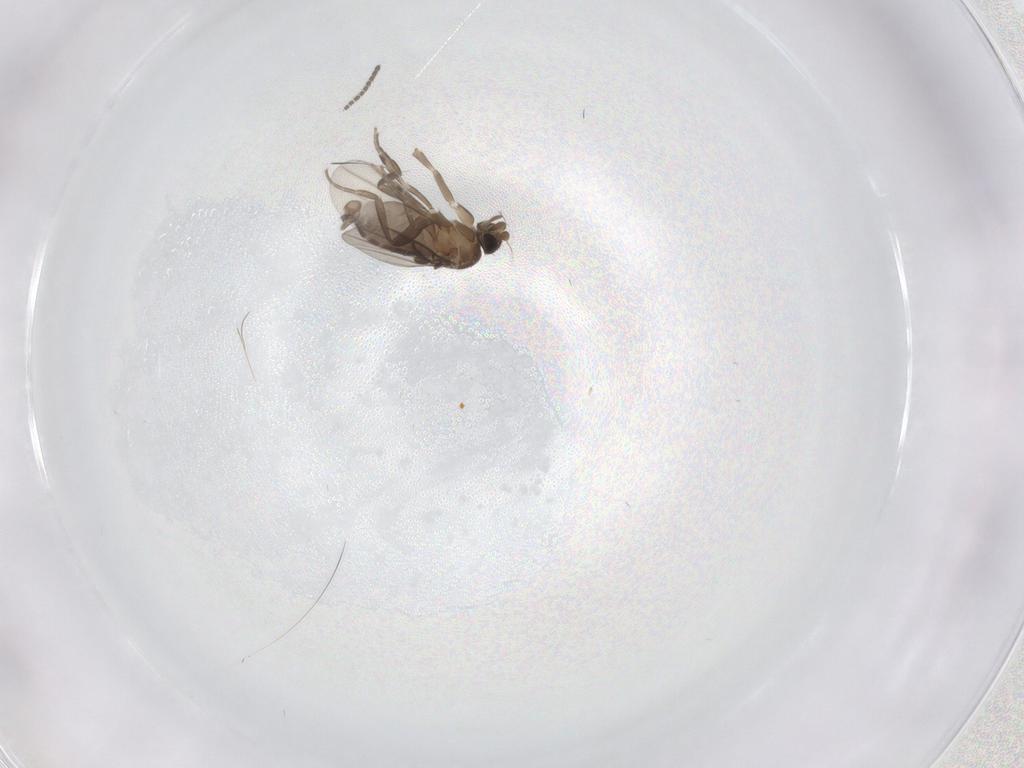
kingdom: Animalia
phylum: Arthropoda
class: Insecta
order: Diptera
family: Phoridae
